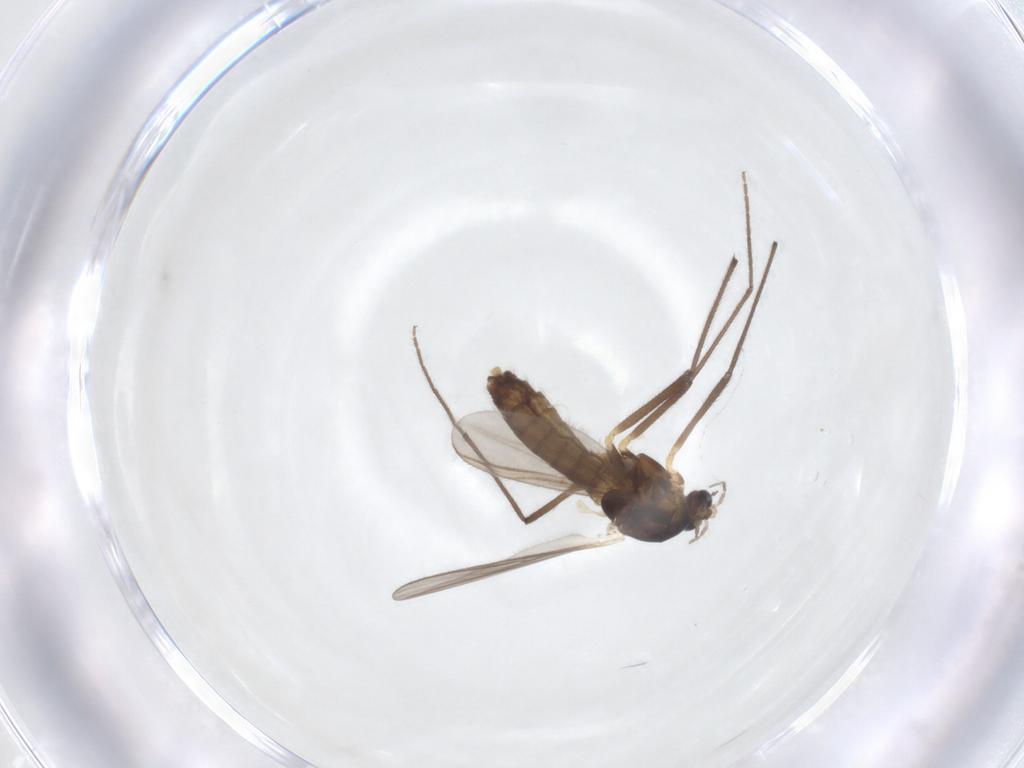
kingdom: Animalia
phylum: Arthropoda
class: Insecta
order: Diptera
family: Chironomidae
